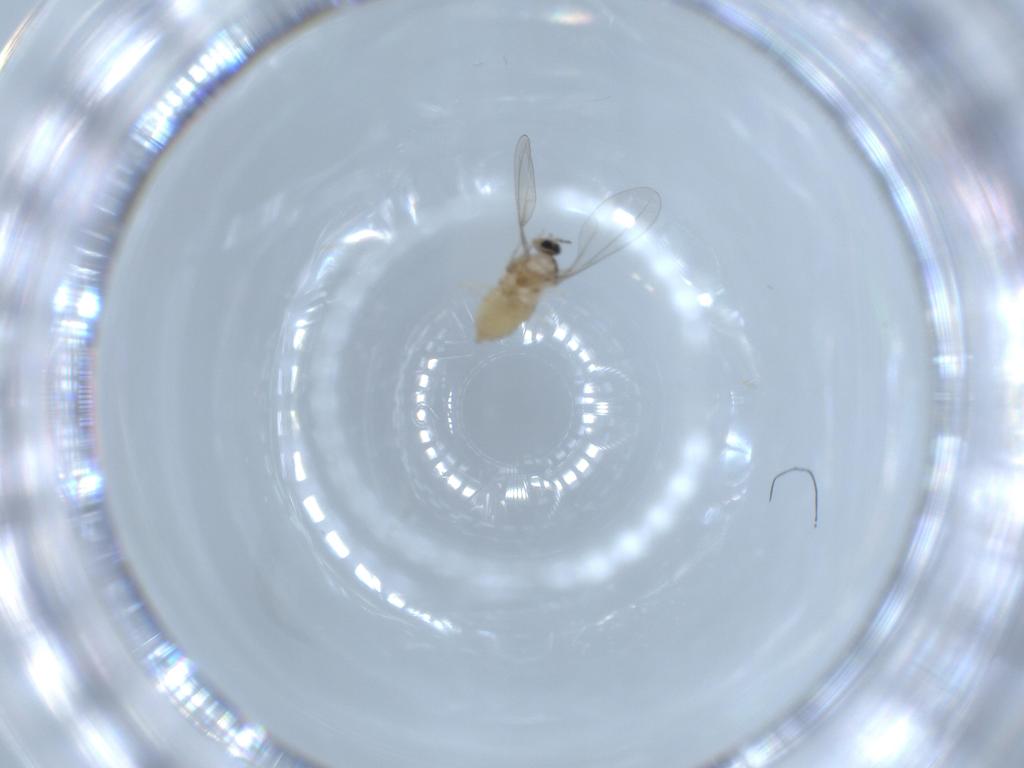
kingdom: Animalia
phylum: Arthropoda
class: Insecta
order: Diptera
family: Cecidomyiidae
